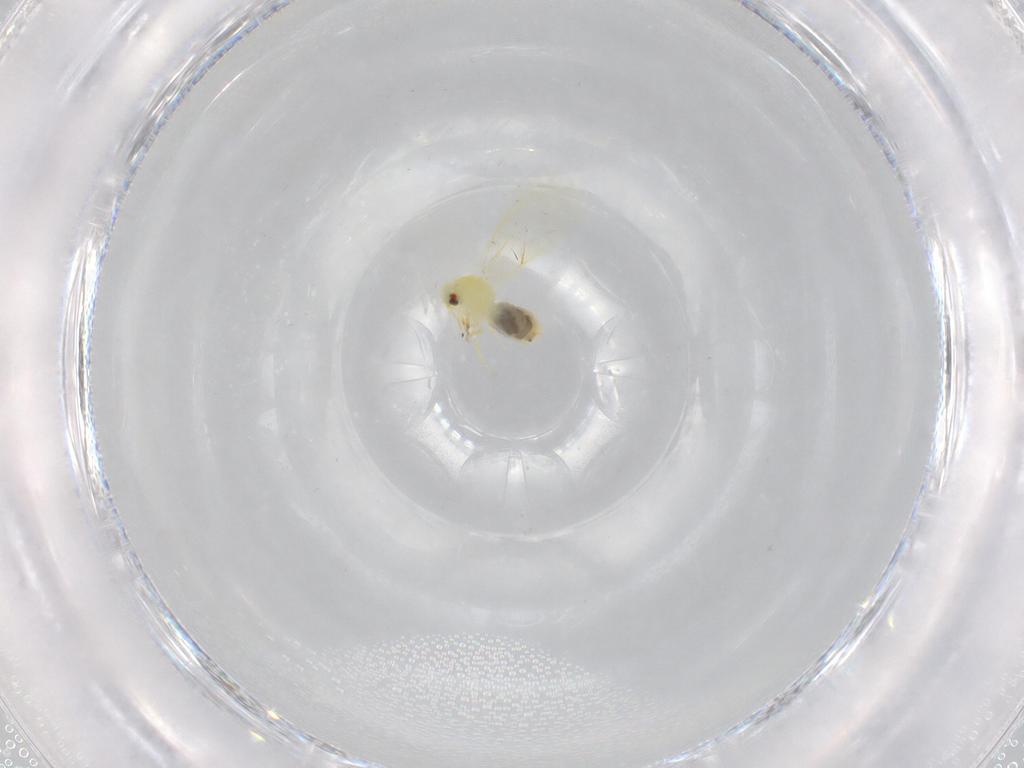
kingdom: Animalia
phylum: Arthropoda
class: Insecta
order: Hemiptera
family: Aleyrodidae
